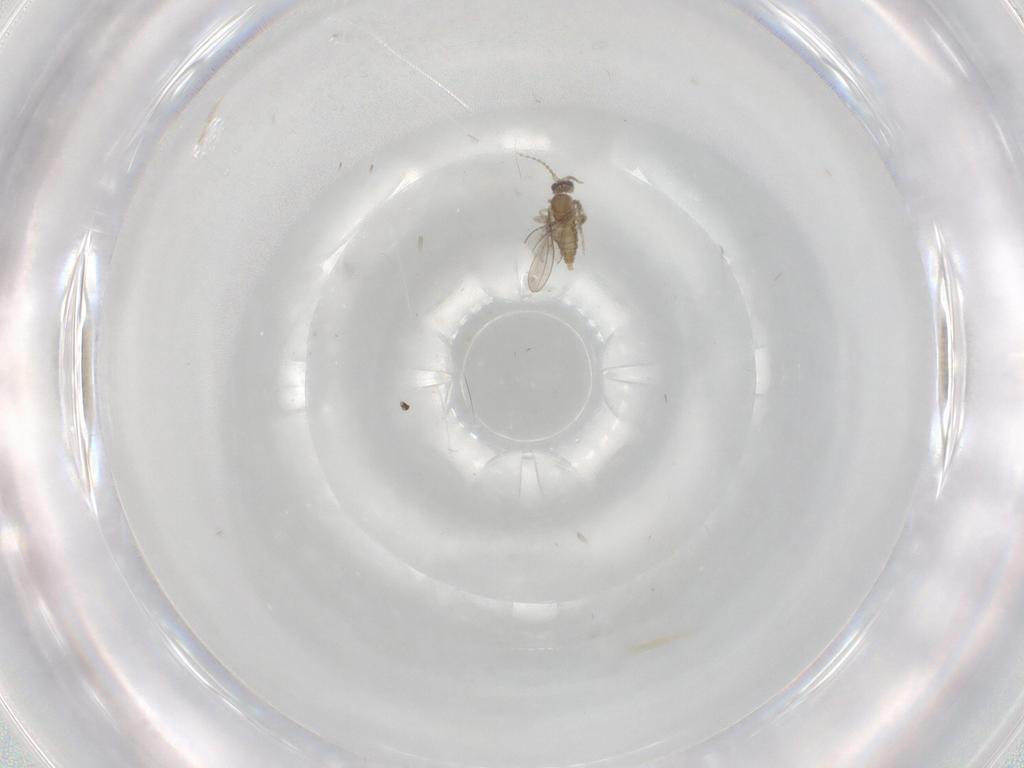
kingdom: Animalia
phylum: Arthropoda
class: Insecta
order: Diptera
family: Cecidomyiidae
